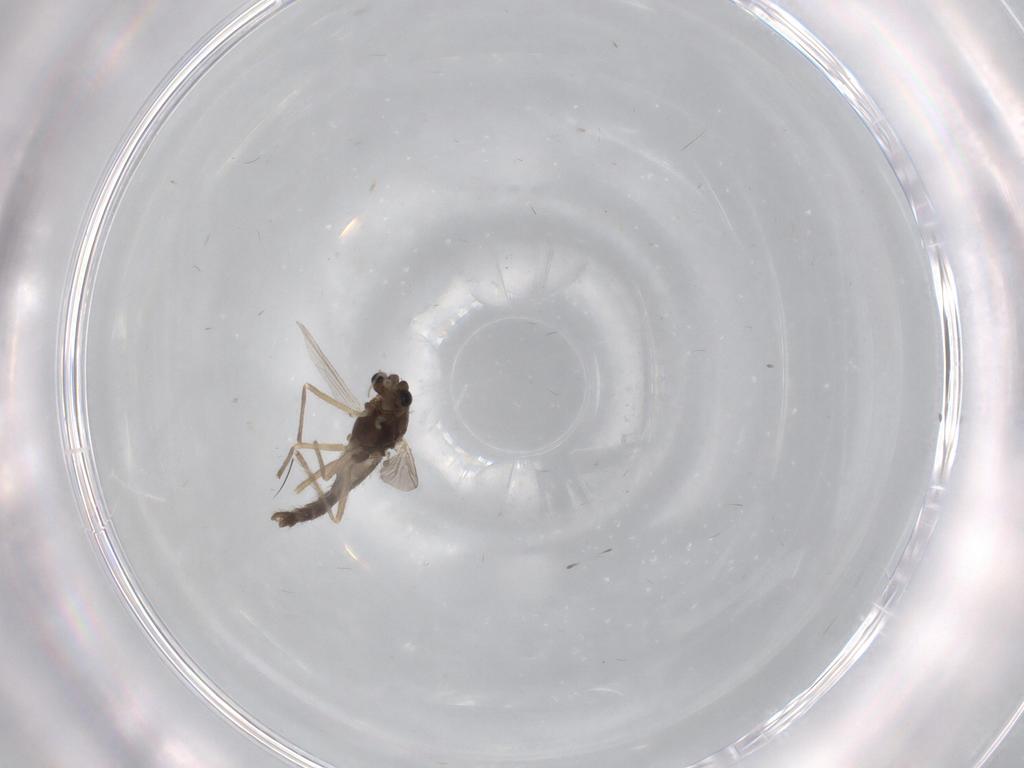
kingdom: Animalia
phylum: Arthropoda
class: Insecta
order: Diptera
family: Chironomidae
